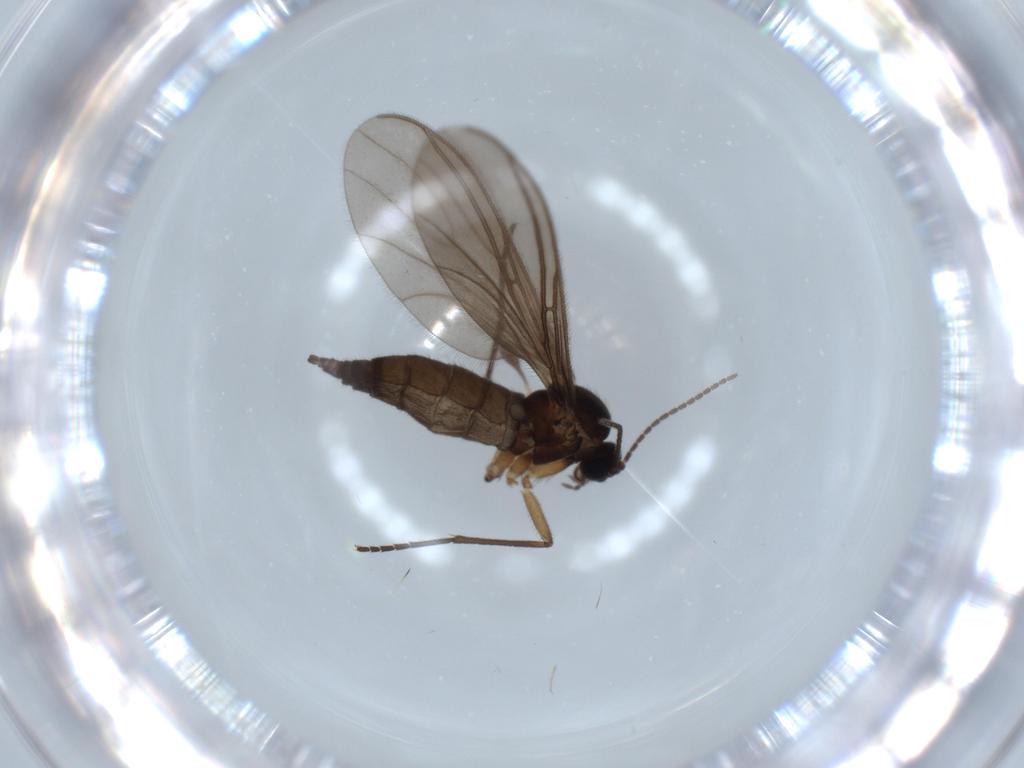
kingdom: Animalia
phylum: Arthropoda
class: Insecta
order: Diptera
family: Sciaridae
